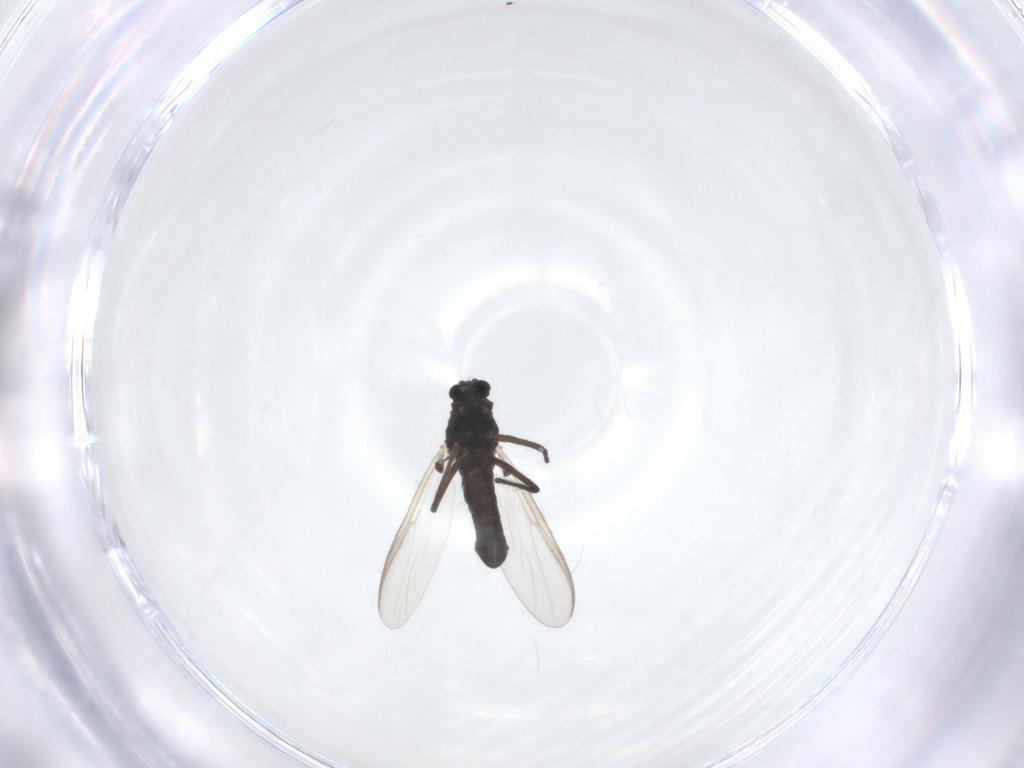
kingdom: Animalia
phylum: Arthropoda
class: Insecta
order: Diptera
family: Chironomidae
